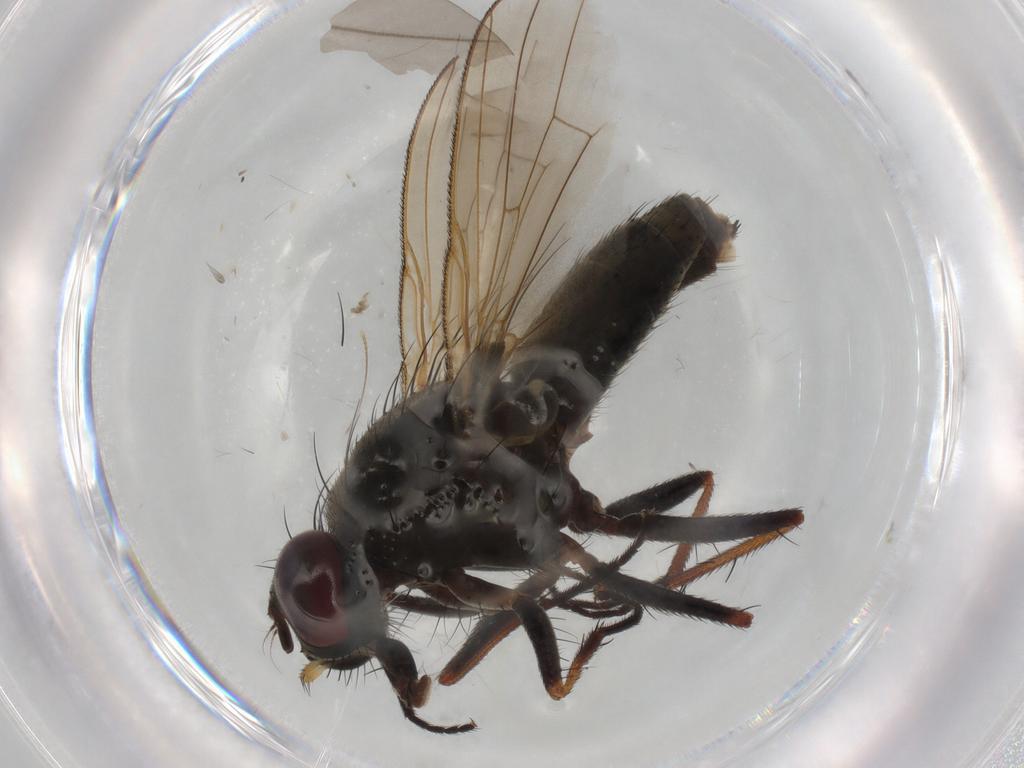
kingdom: Animalia
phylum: Arthropoda
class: Insecta
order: Diptera
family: Muscidae
